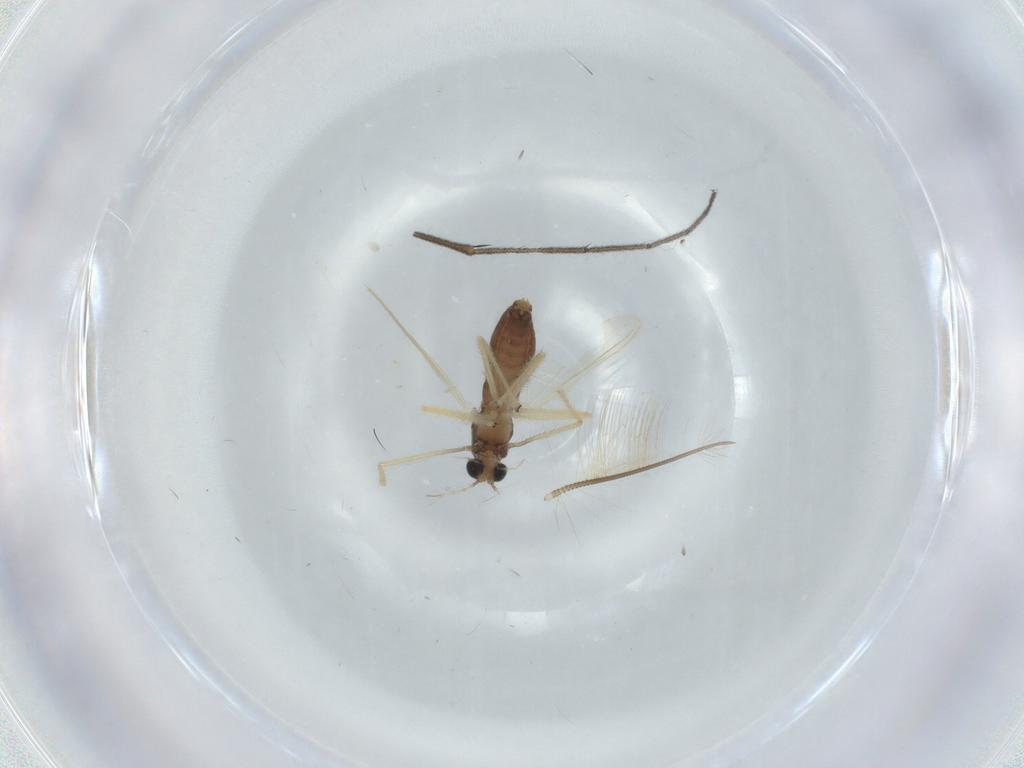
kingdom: Animalia
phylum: Arthropoda
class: Insecta
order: Diptera
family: Chironomidae
